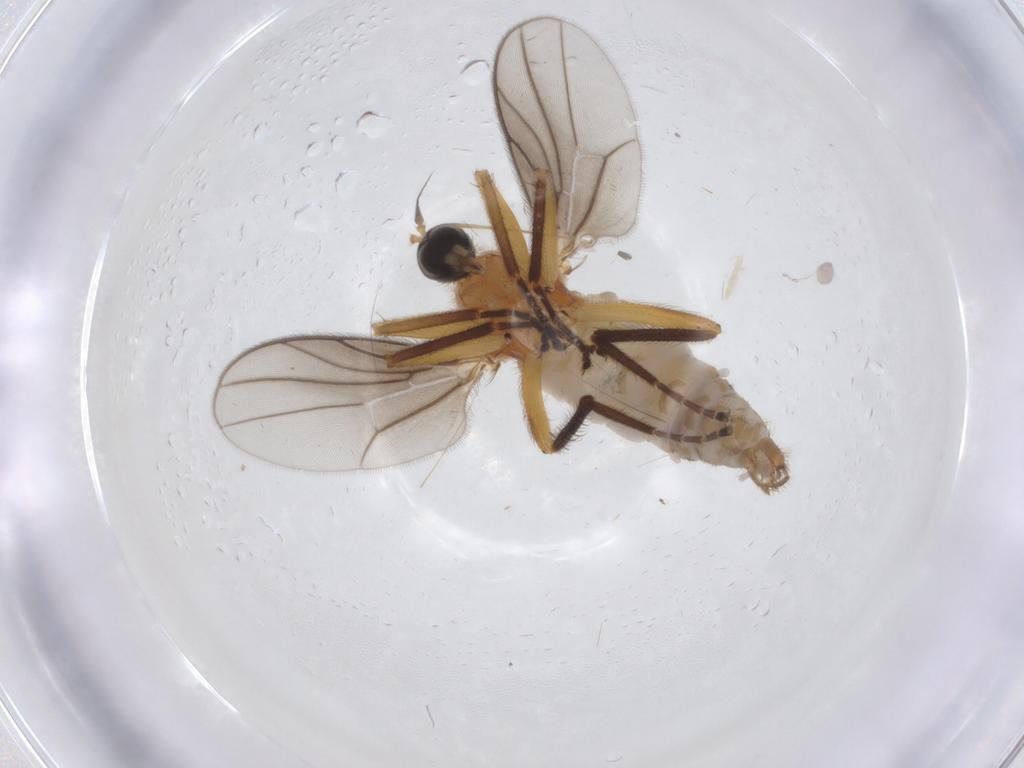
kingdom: Animalia
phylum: Arthropoda
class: Insecta
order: Diptera
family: Hybotidae
